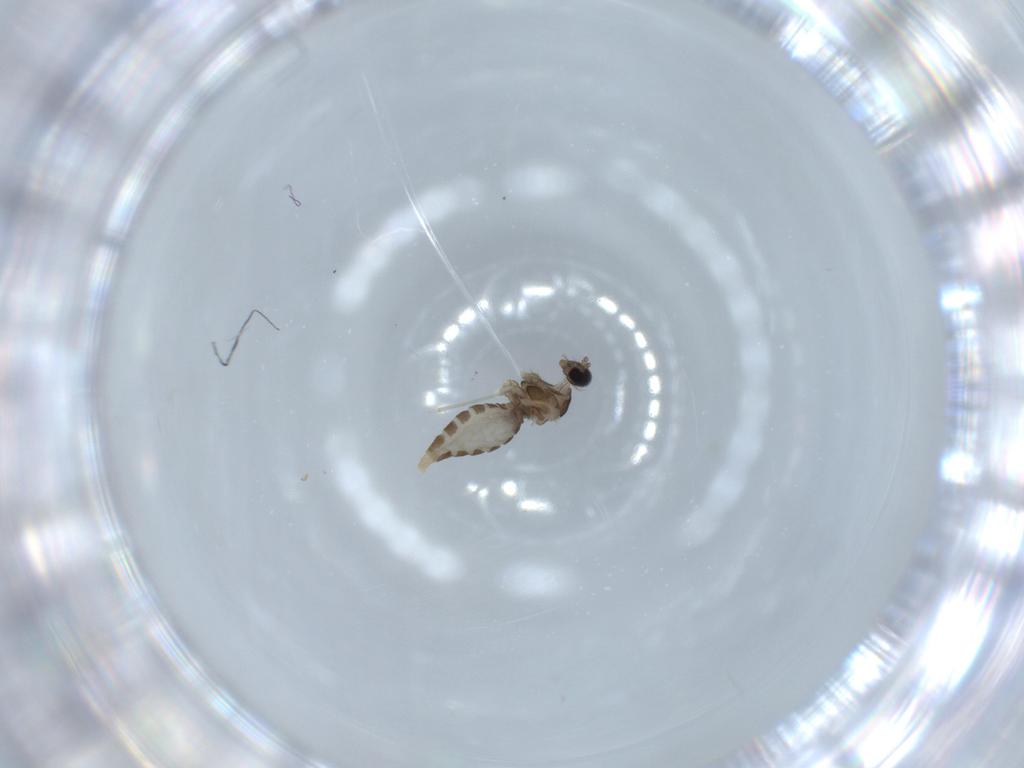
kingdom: Animalia
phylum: Arthropoda
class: Insecta
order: Diptera
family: Cecidomyiidae
